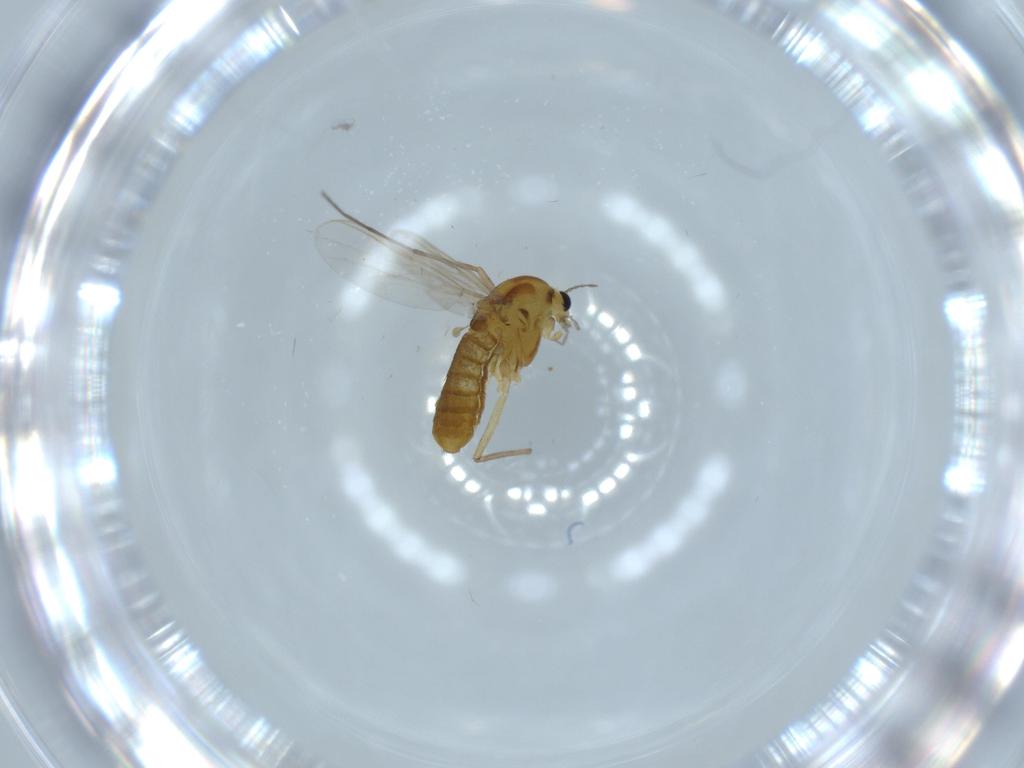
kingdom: Animalia
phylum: Arthropoda
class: Insecta
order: Diptera
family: Chironomidae
